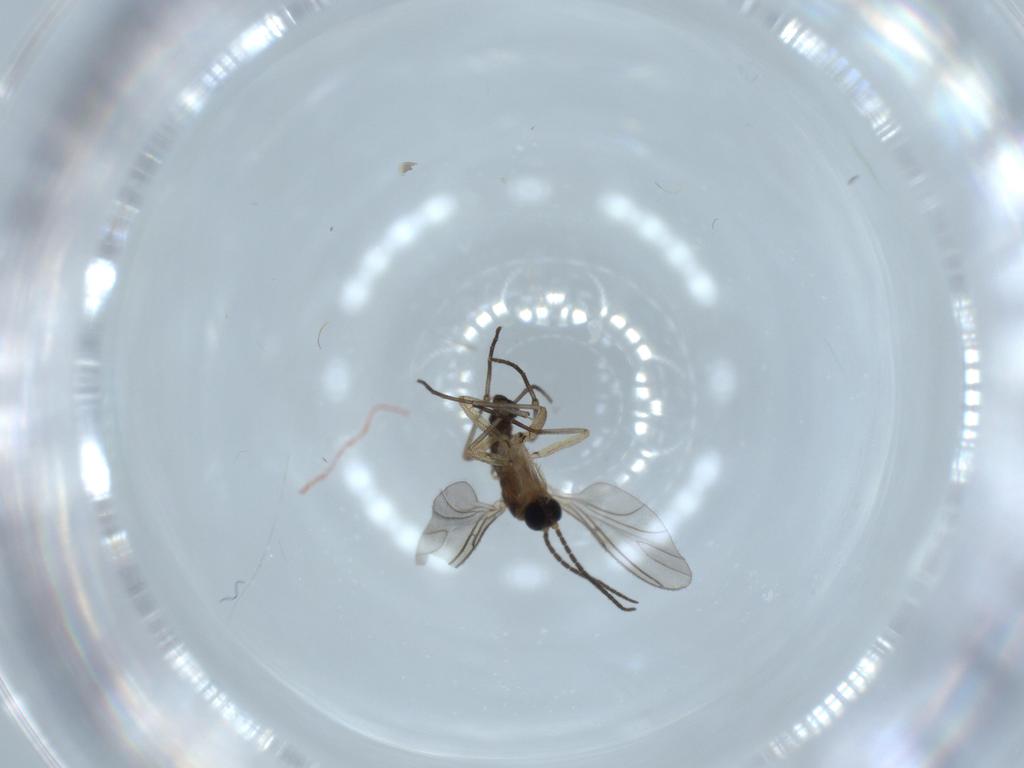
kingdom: Animalia
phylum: Arthropoda
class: Insecta
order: Diptera
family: Sciaridae
